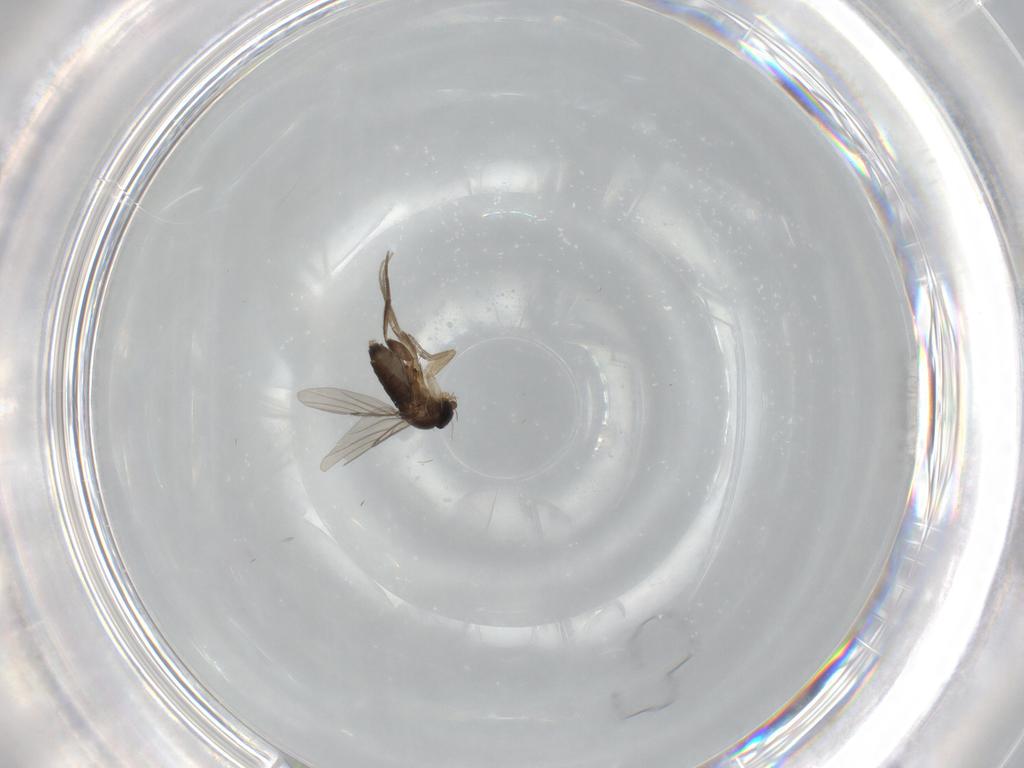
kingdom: Animalia
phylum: Arthropoda
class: Insecta
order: Diptera
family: Phoridae
